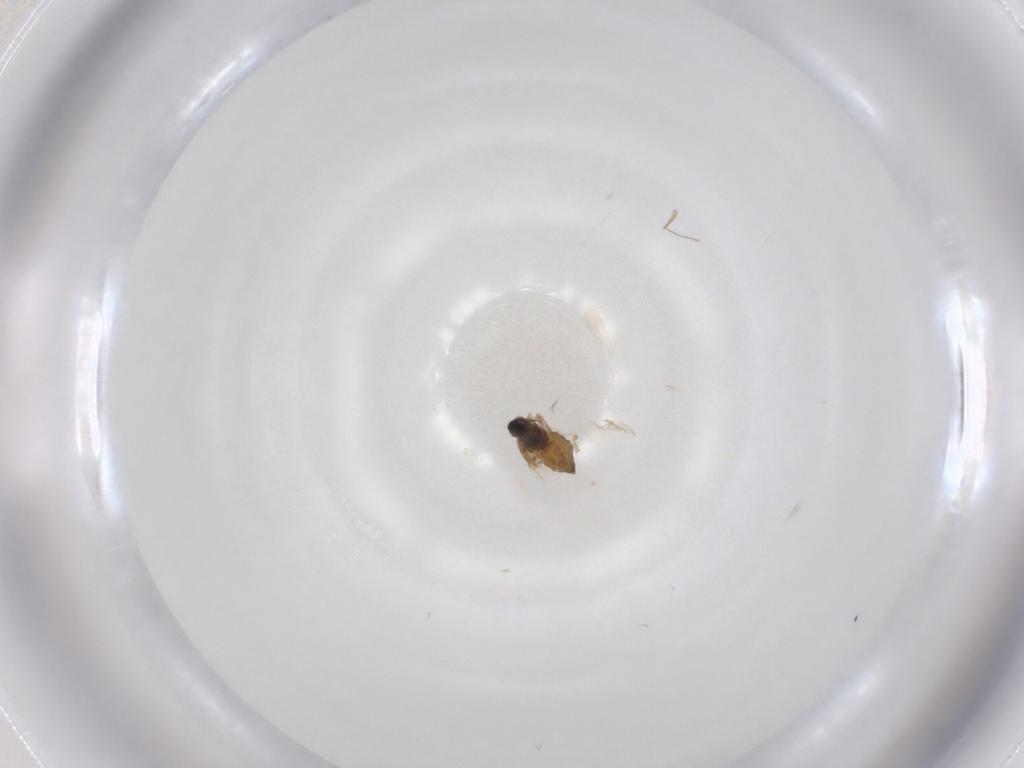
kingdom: Animalia
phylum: Arthropoda
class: Insecta
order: Diptera
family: Cecidomyiidae
